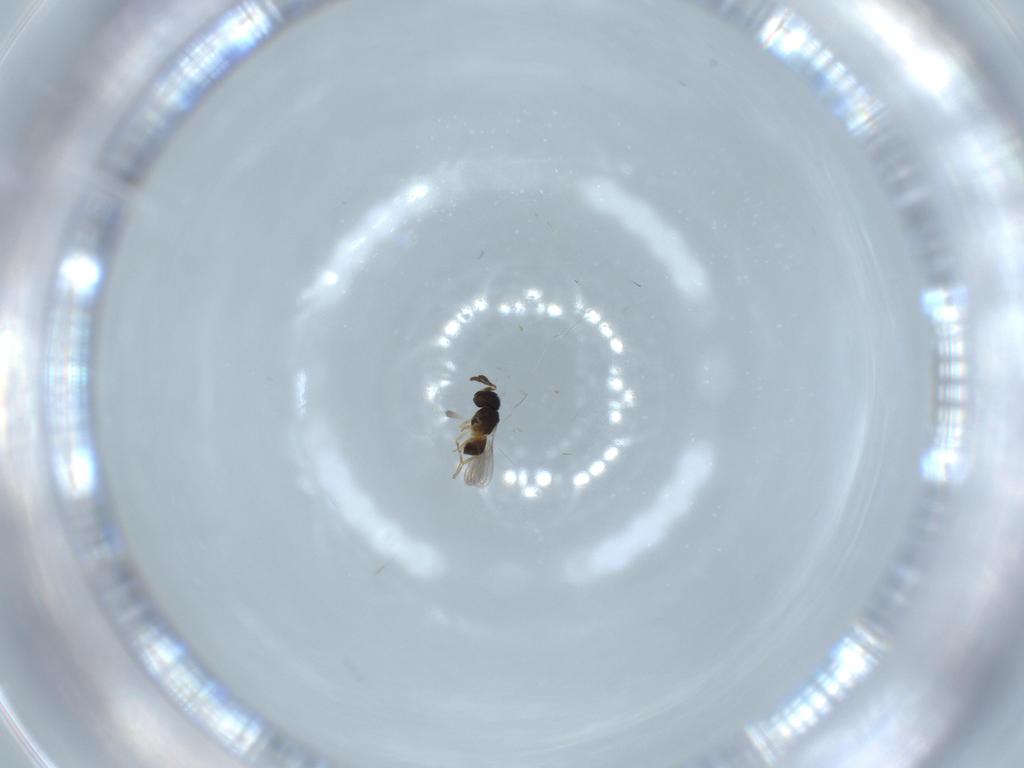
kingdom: Animalia
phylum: Arthropoda
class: Insecta
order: Hymenoptera
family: Scelionidae
